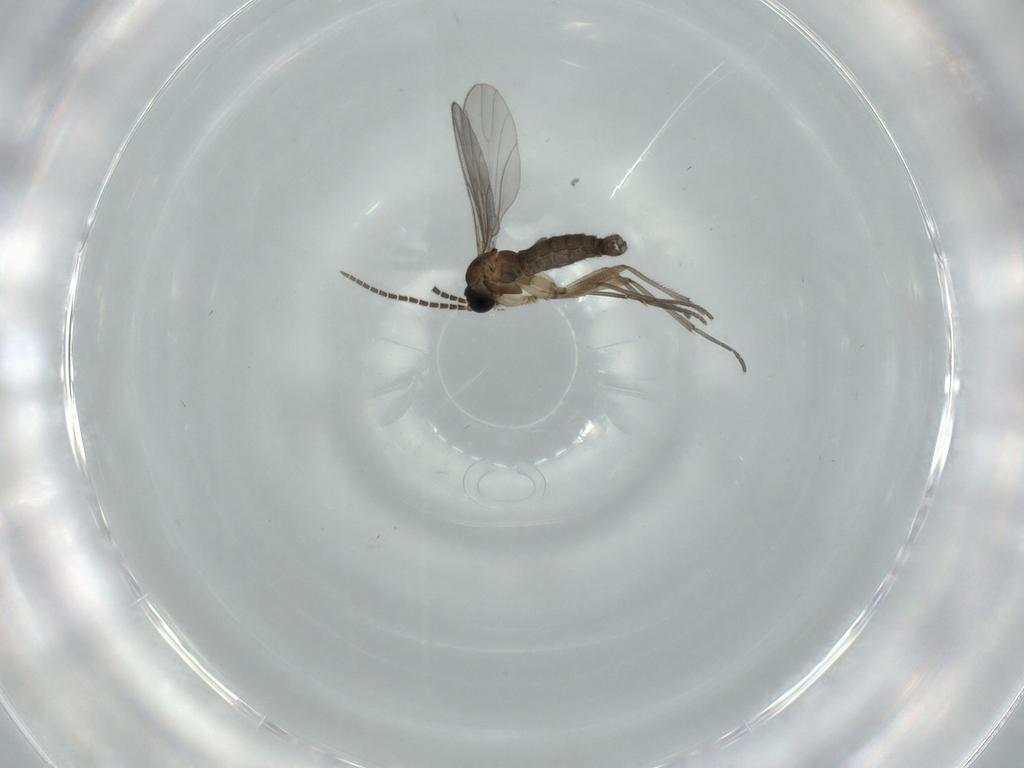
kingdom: Animalia
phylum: Arthropoda
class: Insecta
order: Diptera
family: Sciaridae
